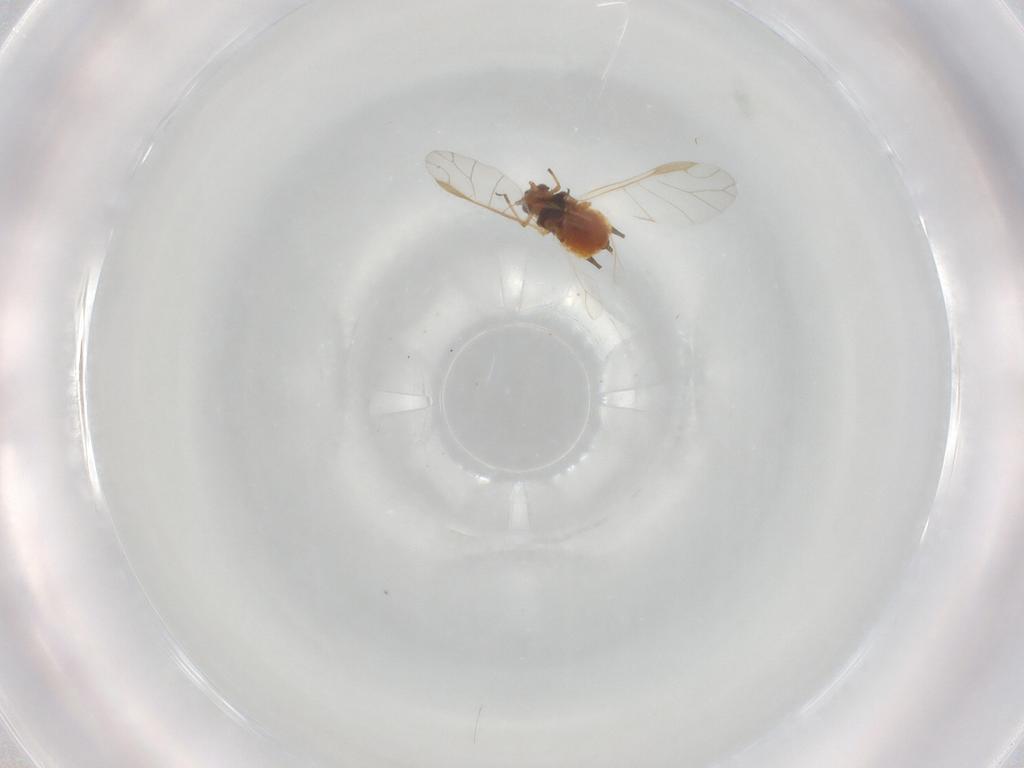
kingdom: Animalia
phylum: Arthropoda
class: Insecta
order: Hemiptera
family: Aphididae
